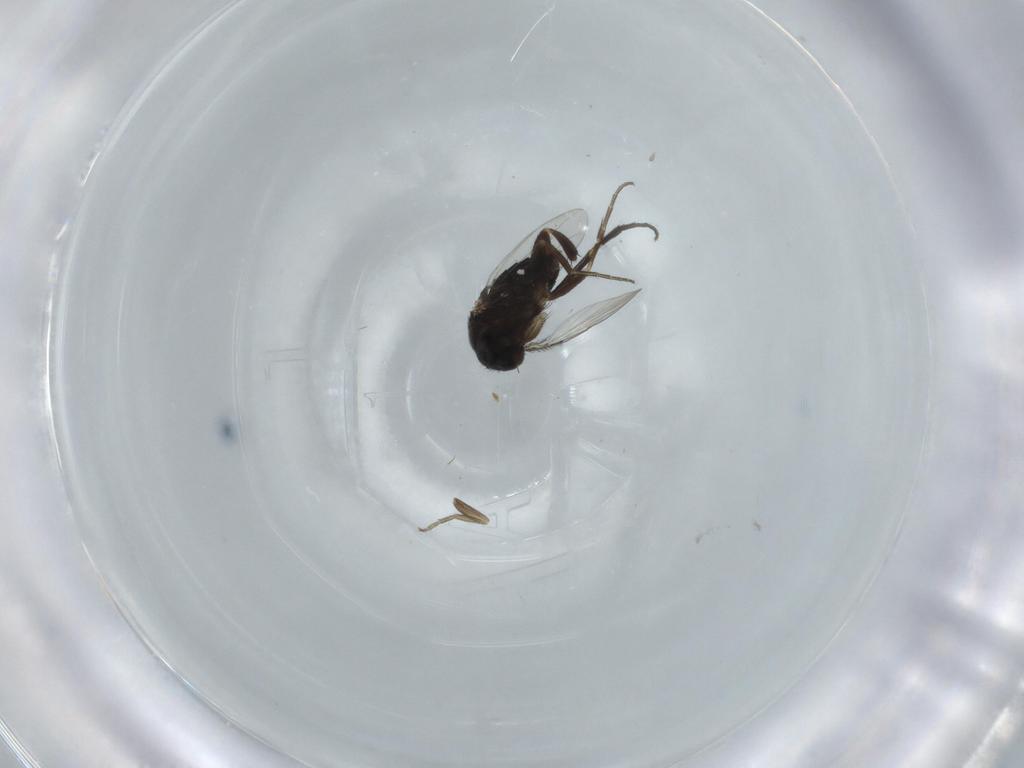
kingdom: Animalia
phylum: Arthropoda
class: Insecta
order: Diptera
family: Phoridae
